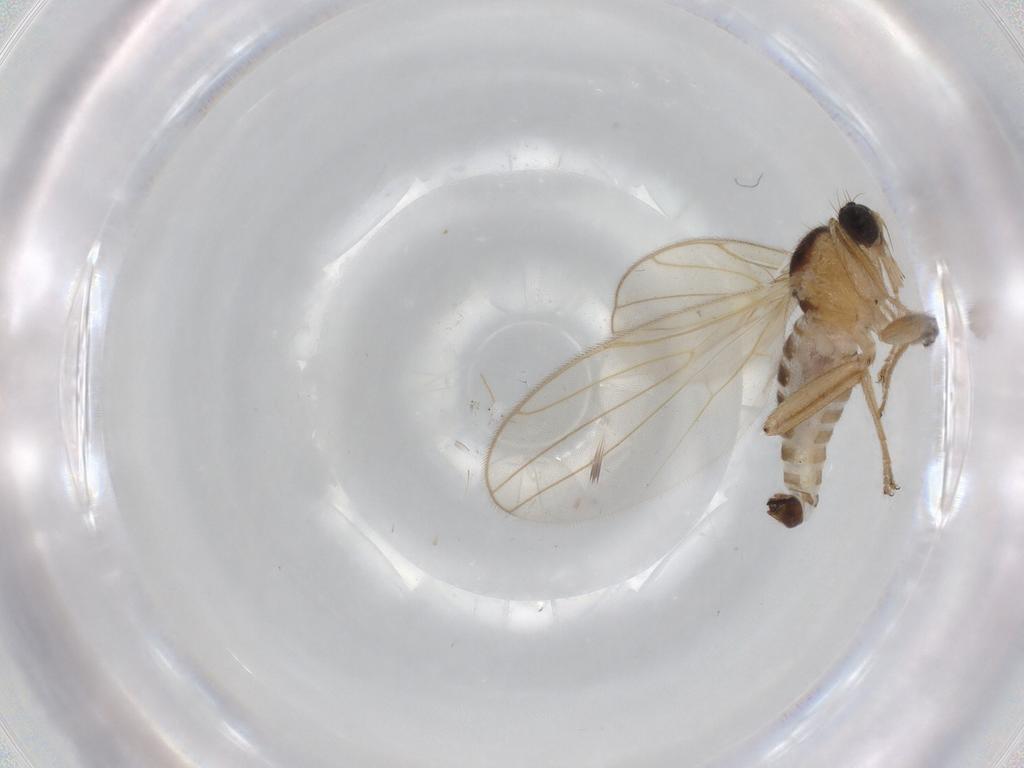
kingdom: Animalia
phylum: Arthropoda
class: Insecta
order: Diptera
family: Hybotidae
